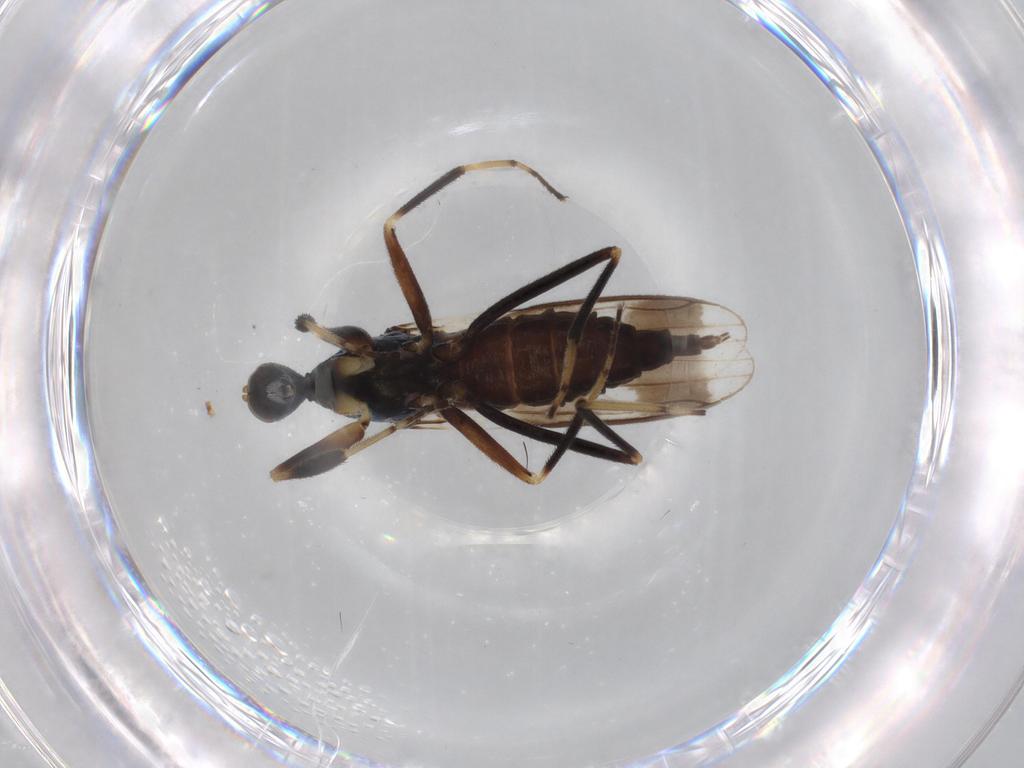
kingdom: Animalia
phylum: Arthropoda
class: Insecta
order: Diptera
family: Hybotidae
